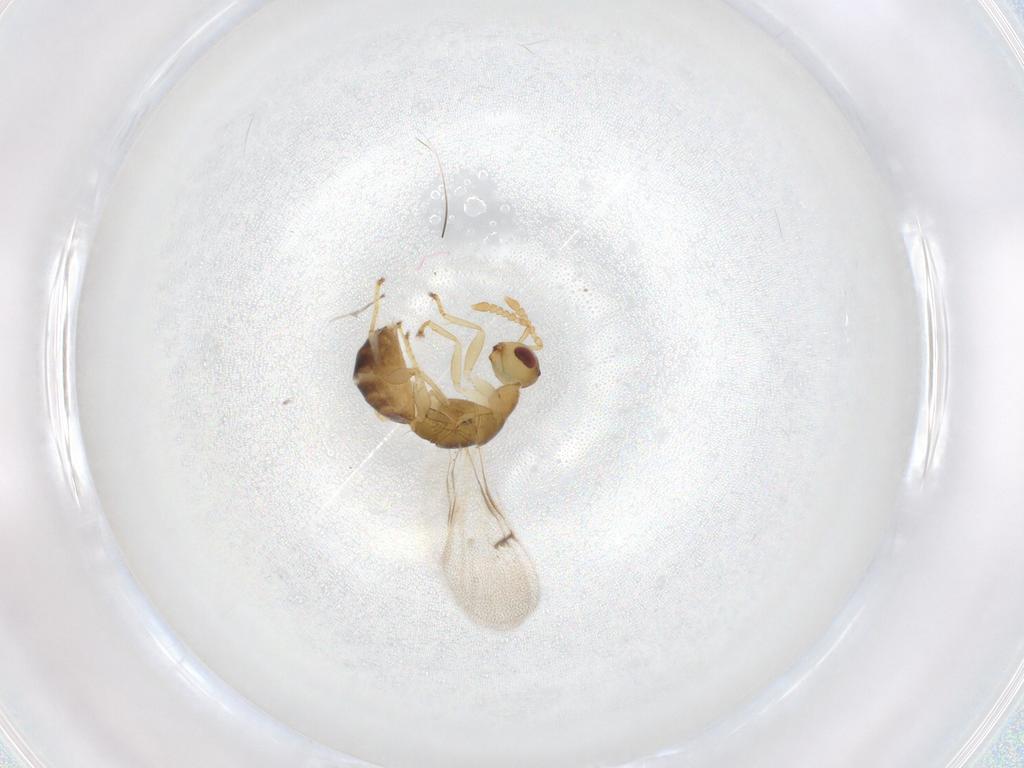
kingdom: Animalia
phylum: Arthropoda
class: Insecta
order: Hymenoptera
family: Epichrysomallidae
